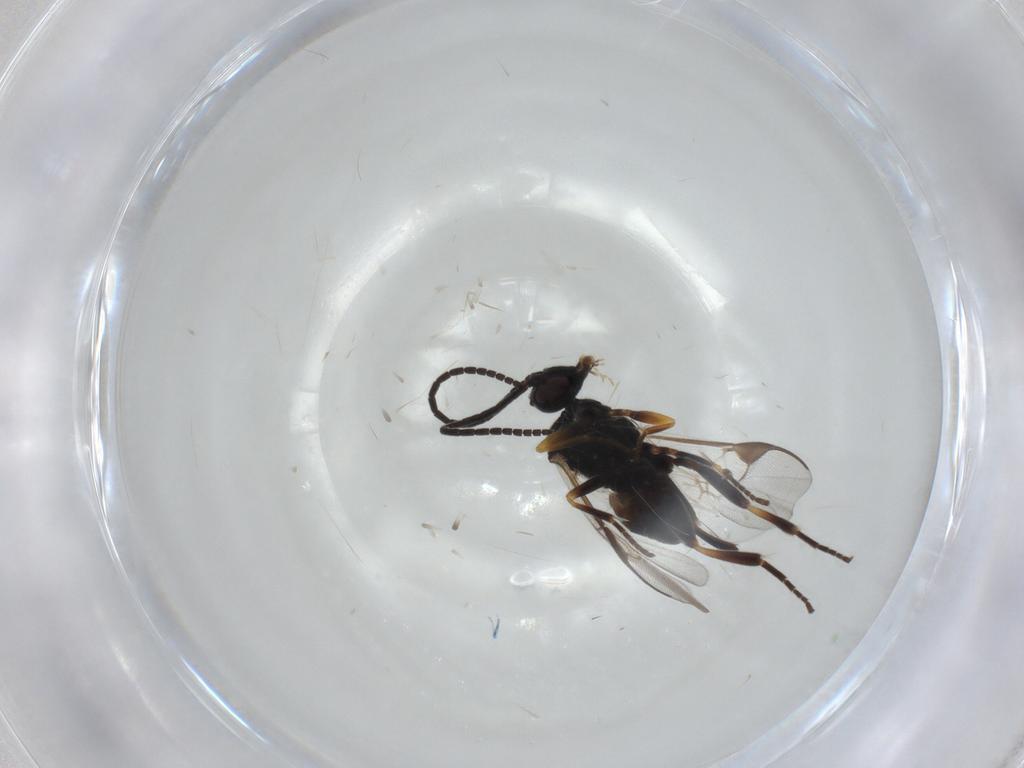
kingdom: Animalia
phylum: Arthropoda
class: Insecta
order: Hymenoptera
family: Braconidae
